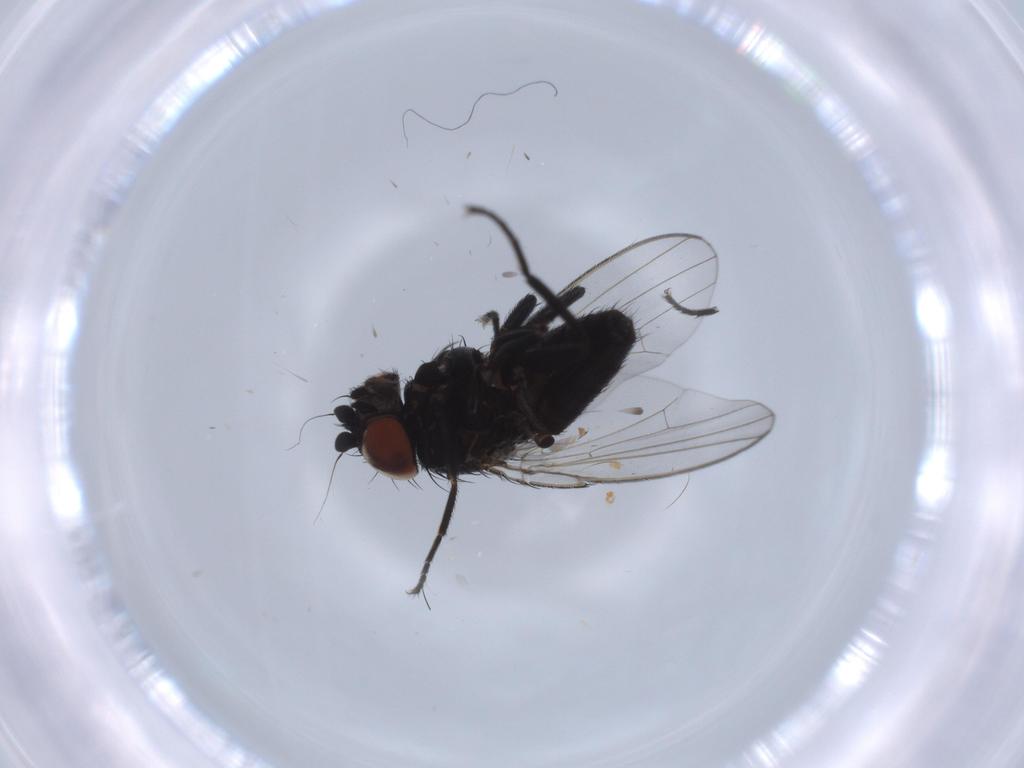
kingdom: Animalia
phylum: Arthropoda
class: Insecta
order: Diptera
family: Milichiidae
